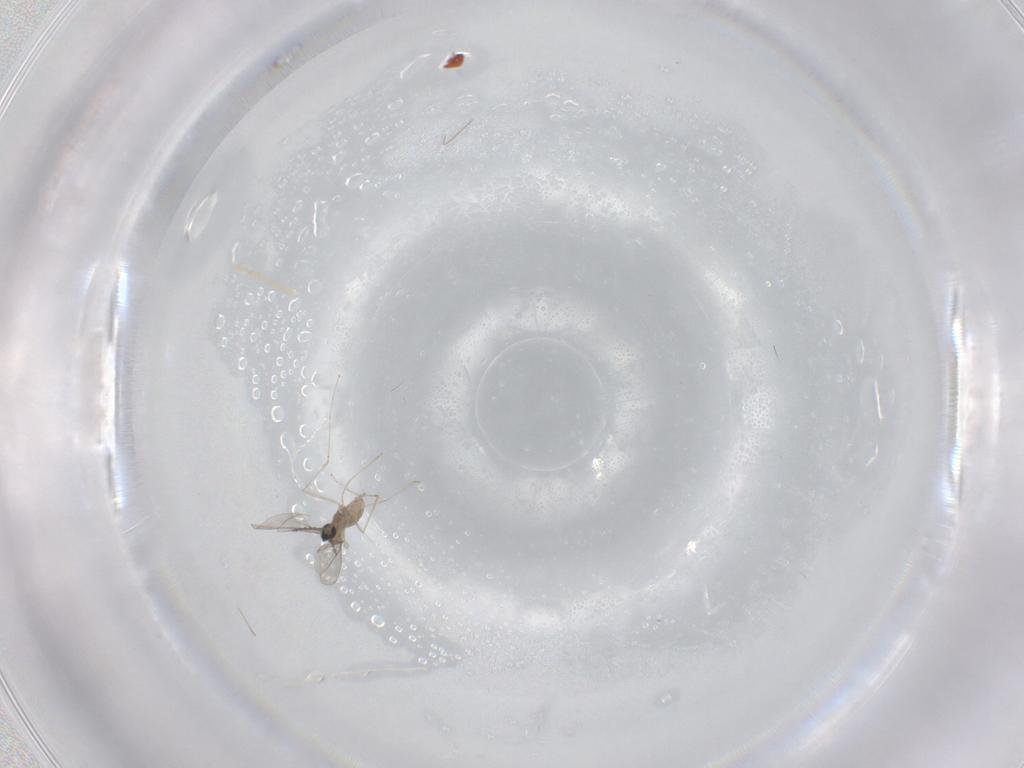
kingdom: Animalia
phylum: Arthropoda
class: Insecta
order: Diptera
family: Cecidomyiidae
